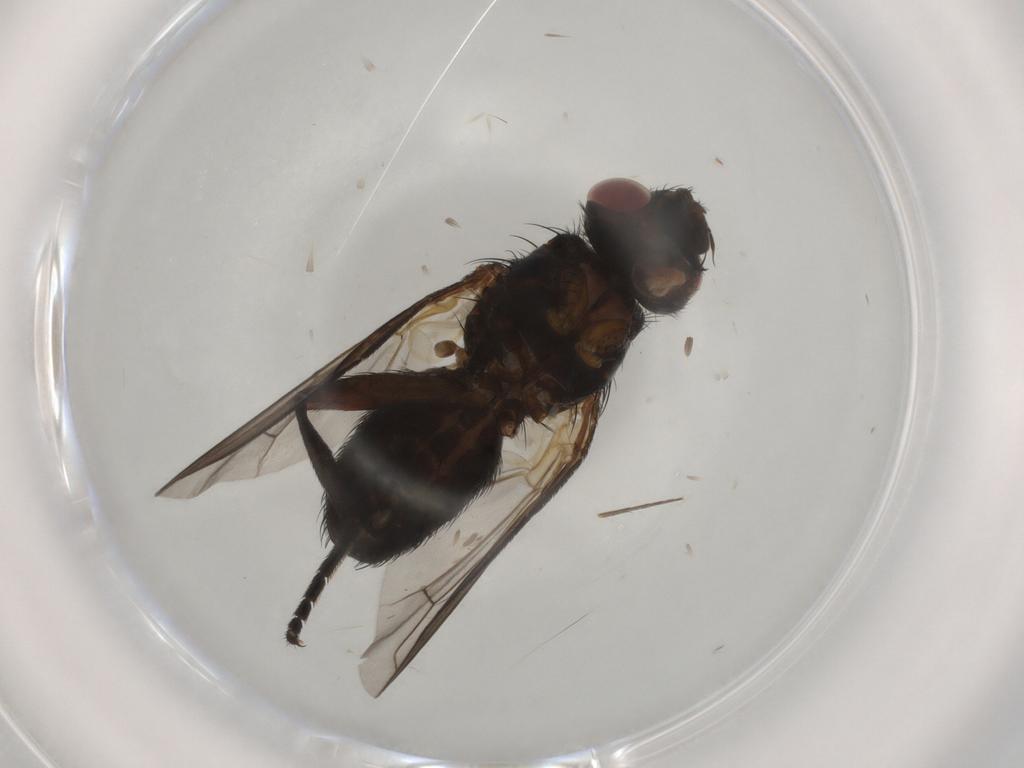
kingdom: Animalia
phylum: Arthropoda
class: Insecta
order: Diptera
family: Tachinidae
